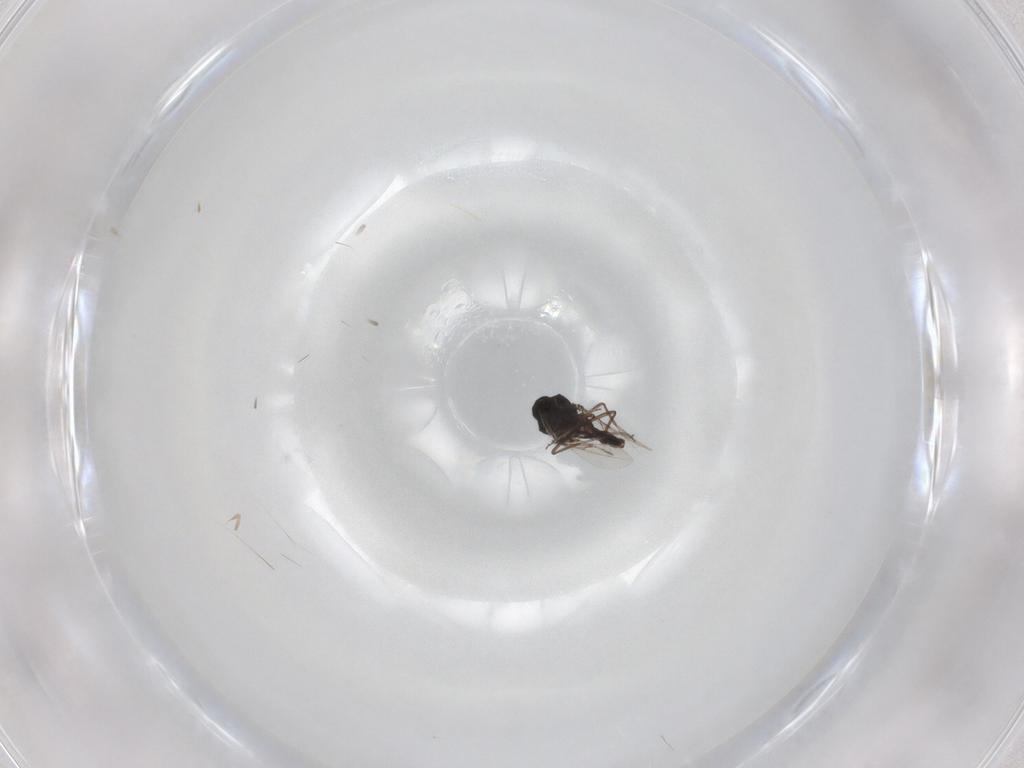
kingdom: Animalia
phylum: Arthropoda
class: Insecta
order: Diptera
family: Ceratopogonidae
